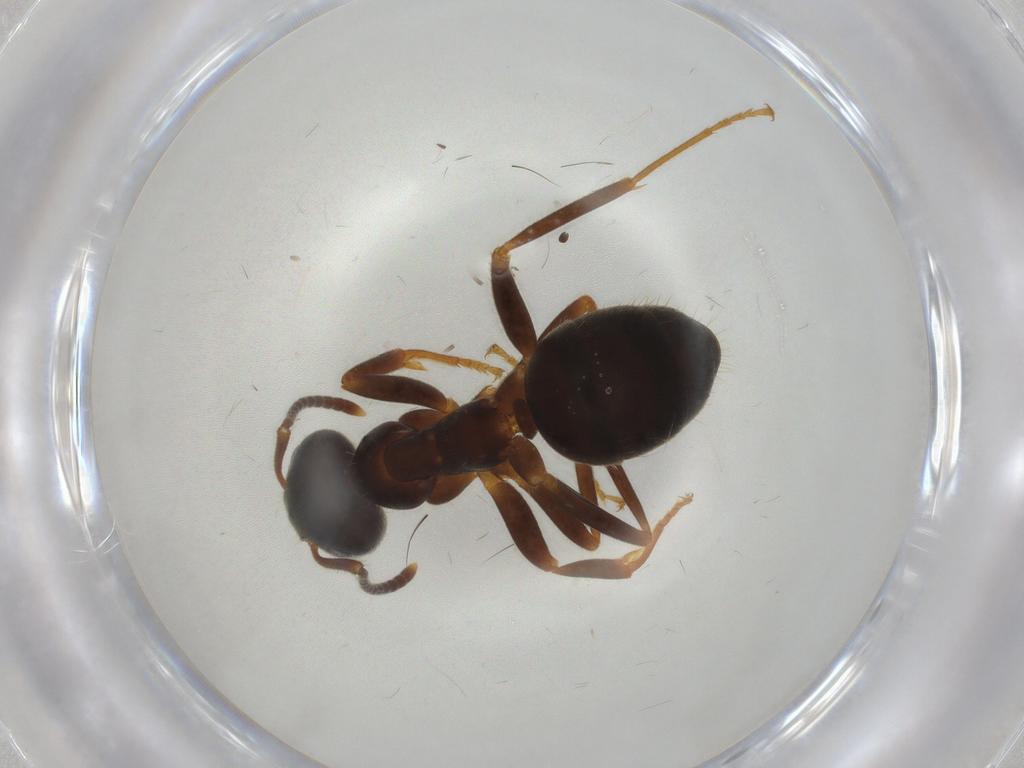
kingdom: Animalia
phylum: Arthropoda
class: Insecta
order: Hymenoptera
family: Formicidae
